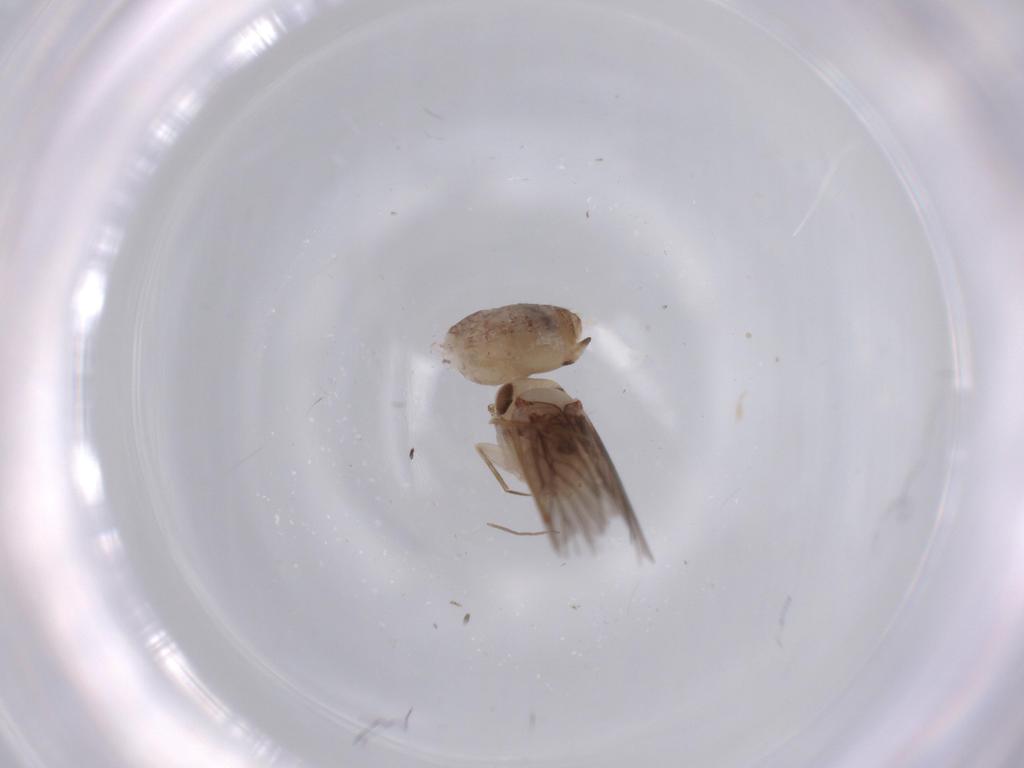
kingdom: Animalia
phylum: Arthropoda
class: Insecta
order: Psocodea
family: Lepidopsocidae
